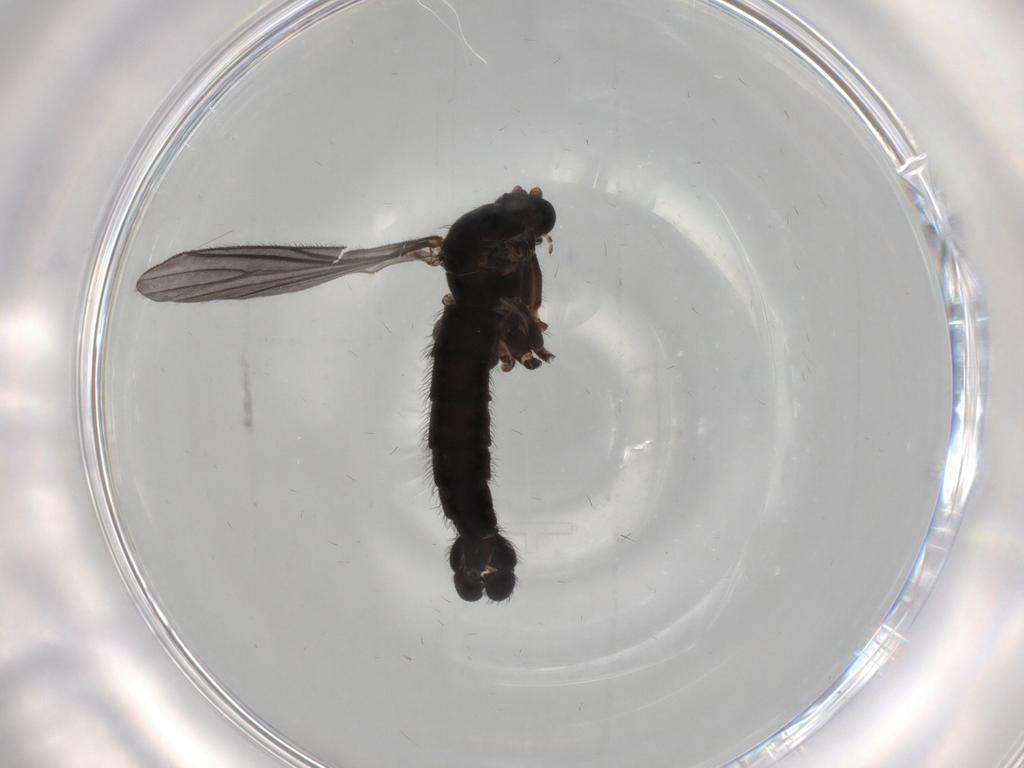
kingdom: Animalia
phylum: Arthropoda
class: Insecta
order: Diptera
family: Sciaridae
